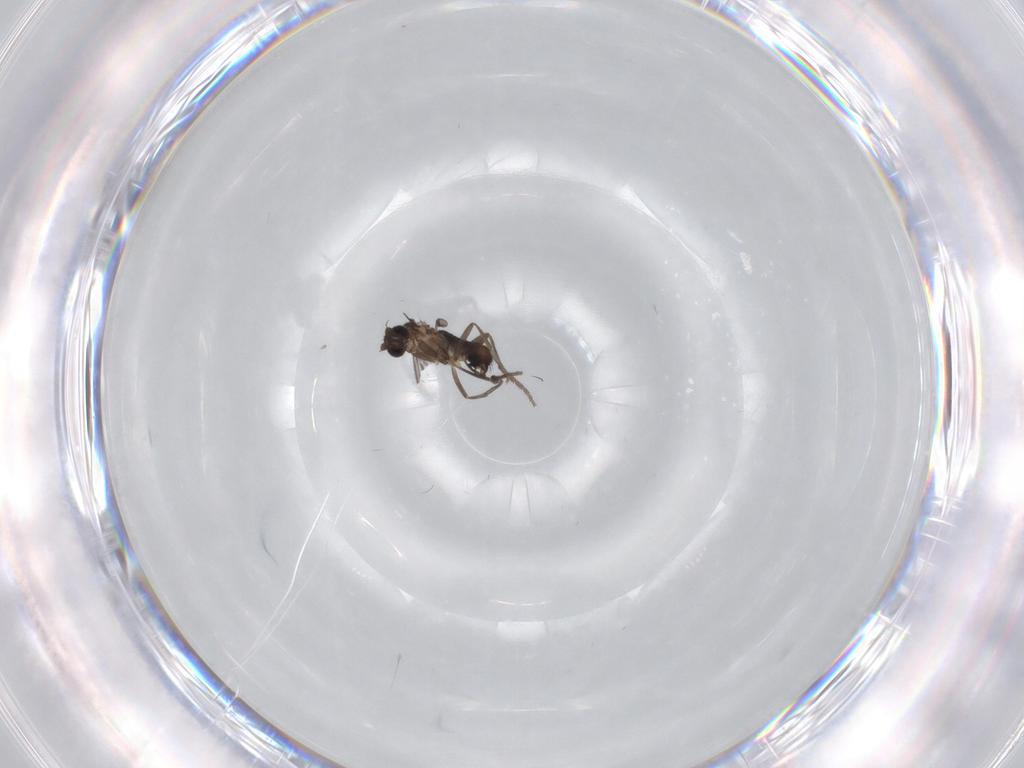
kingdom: Animalia
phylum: Arthropoda
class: Insecta
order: Diptera
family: Phoridae
